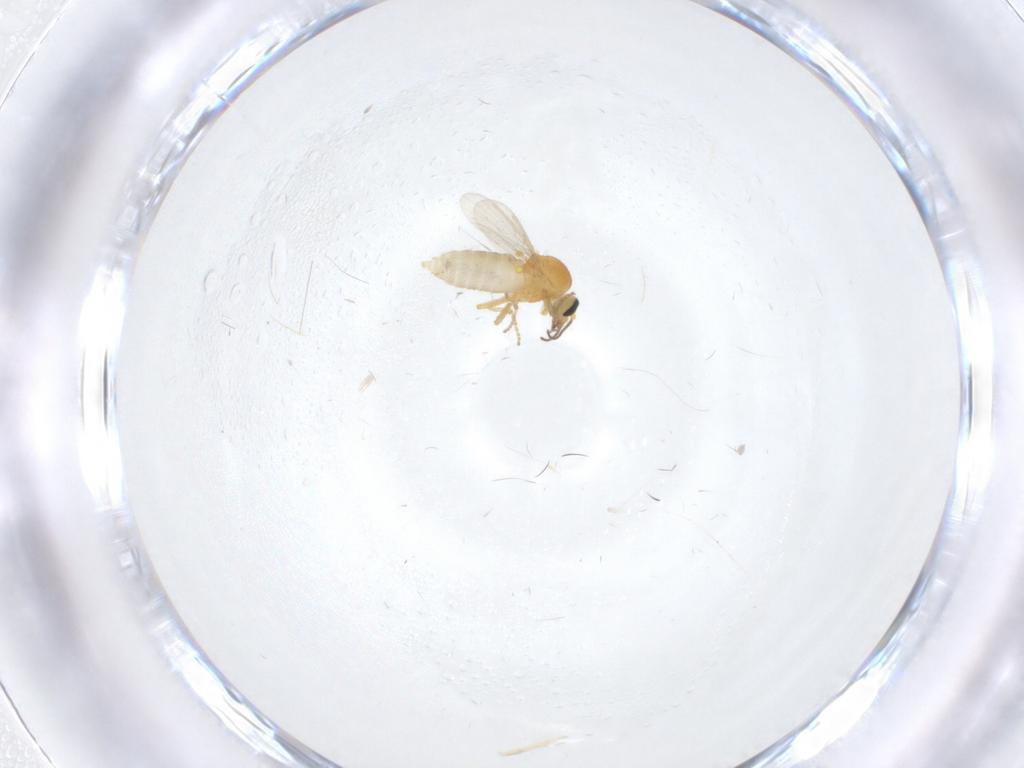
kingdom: Animalia
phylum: Arthropoda
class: Insecta
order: Diptera
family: Ceratopogonidae
